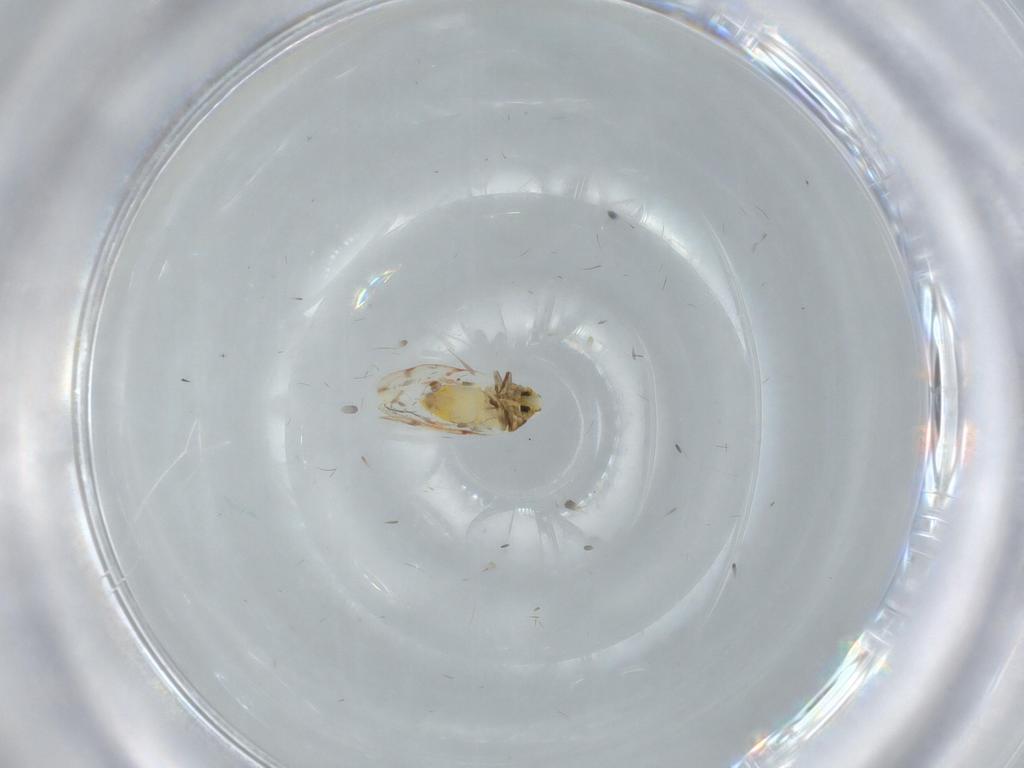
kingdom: Animalia
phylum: Arthropoda
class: Insecta
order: Hemiptera
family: Aleyrodidae
